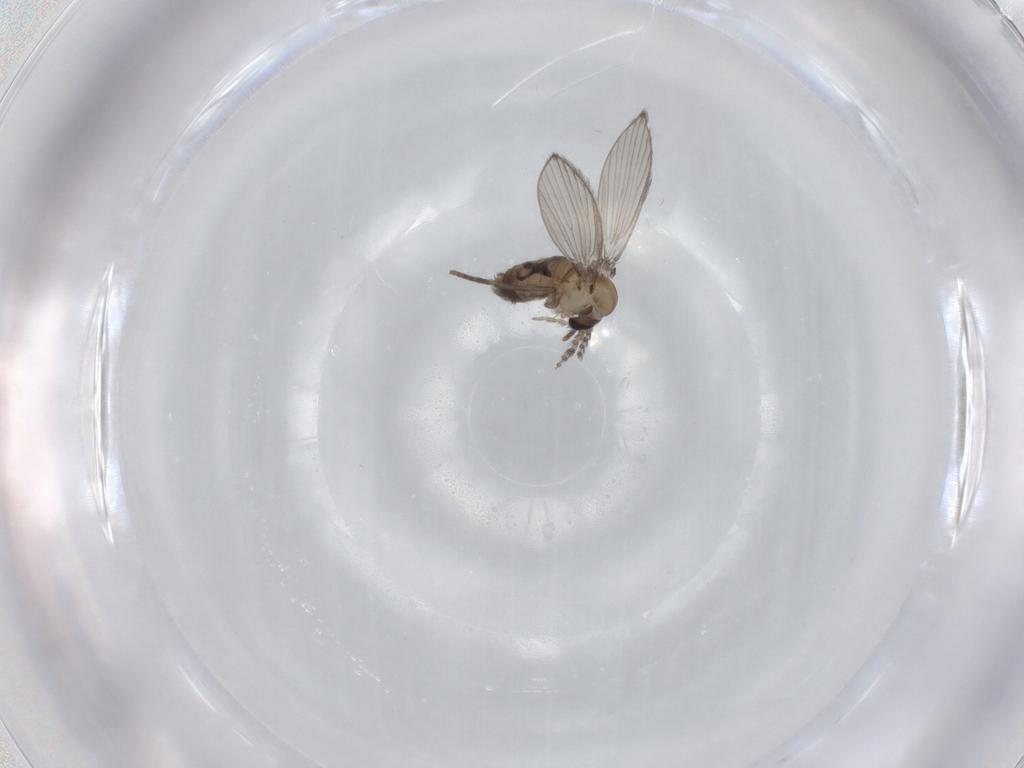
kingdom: Animalia
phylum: Arthropoda
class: Insecta
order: Diptera
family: Psychodidae
